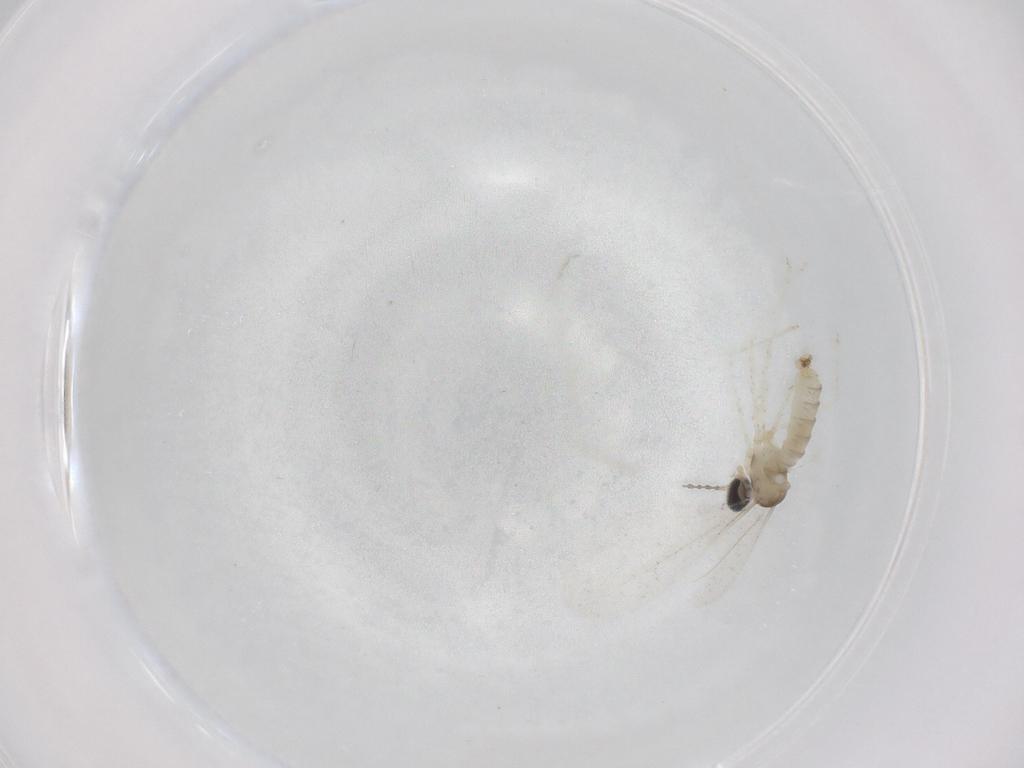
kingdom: Animalia
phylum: Arthropoda
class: Insecta
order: Diptera
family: Cecidomyiidae
